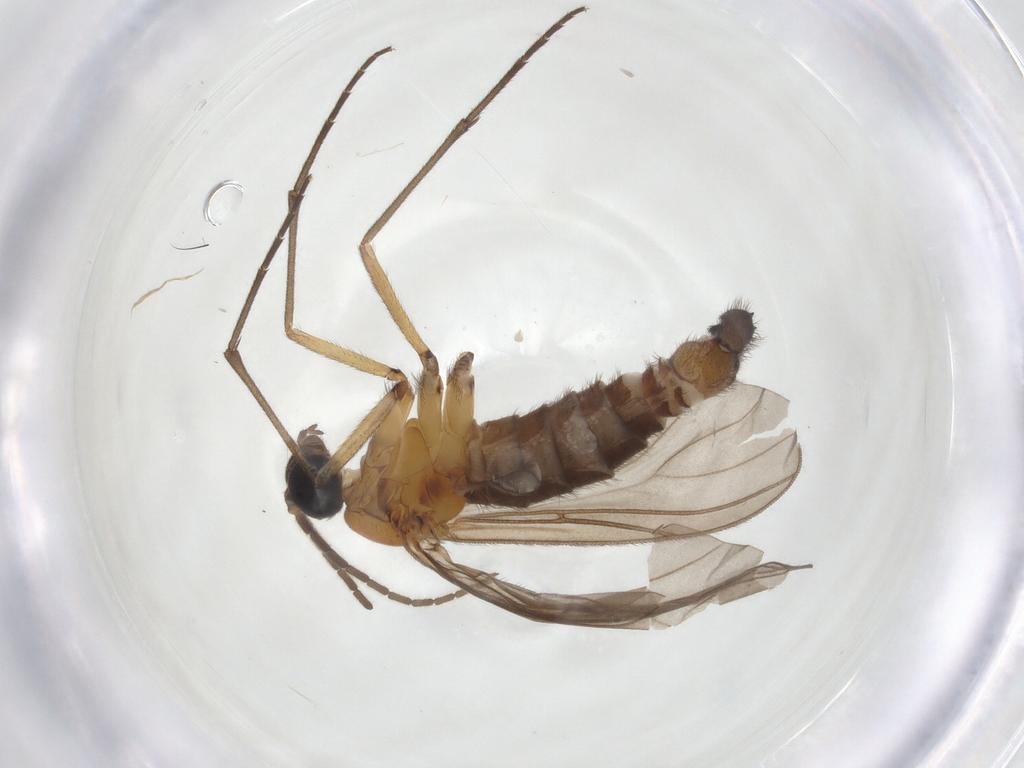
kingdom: Animalia
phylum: Arthropoda
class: Insecta
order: Diptera
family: Sciaridae
